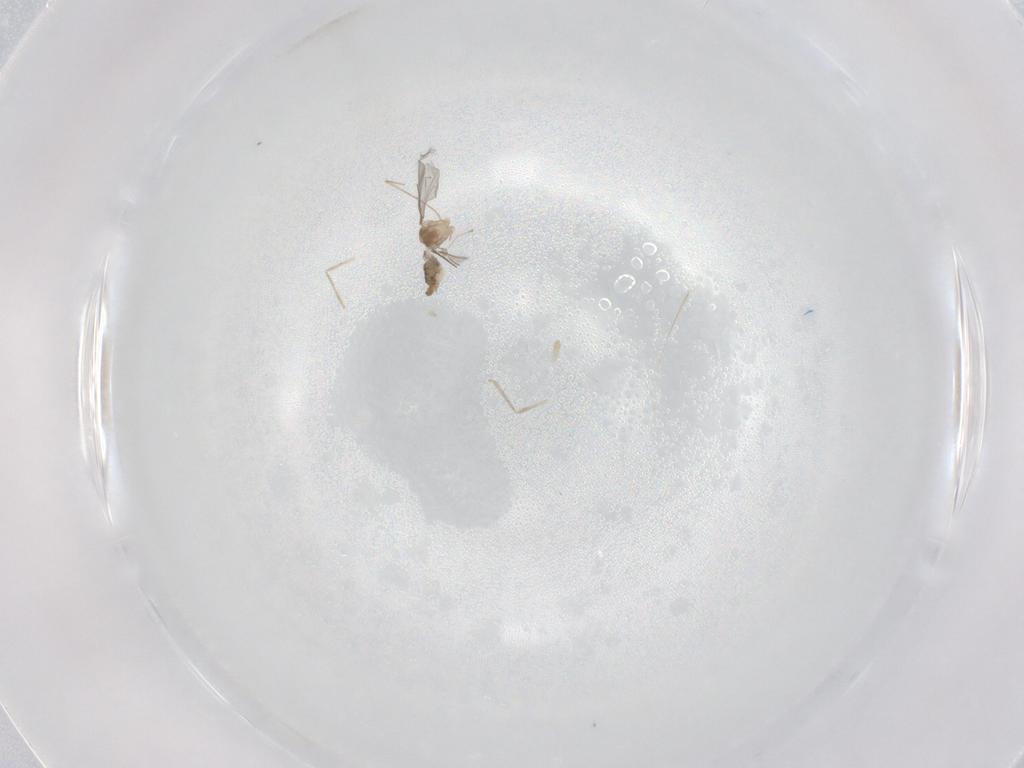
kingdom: Animalia
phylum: Arthropoda
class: Insecta
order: Diptera
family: Cecidomyiidae
